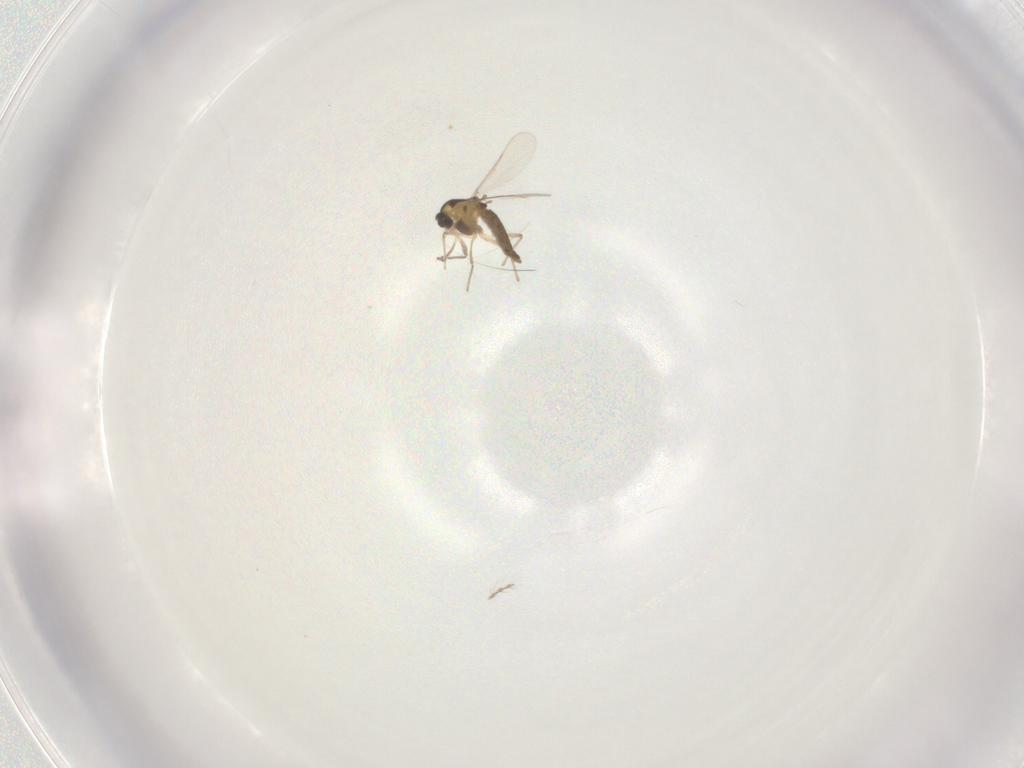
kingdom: Animalia
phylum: Arthropoda
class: Insecta
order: Diptera
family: Chironomidae
